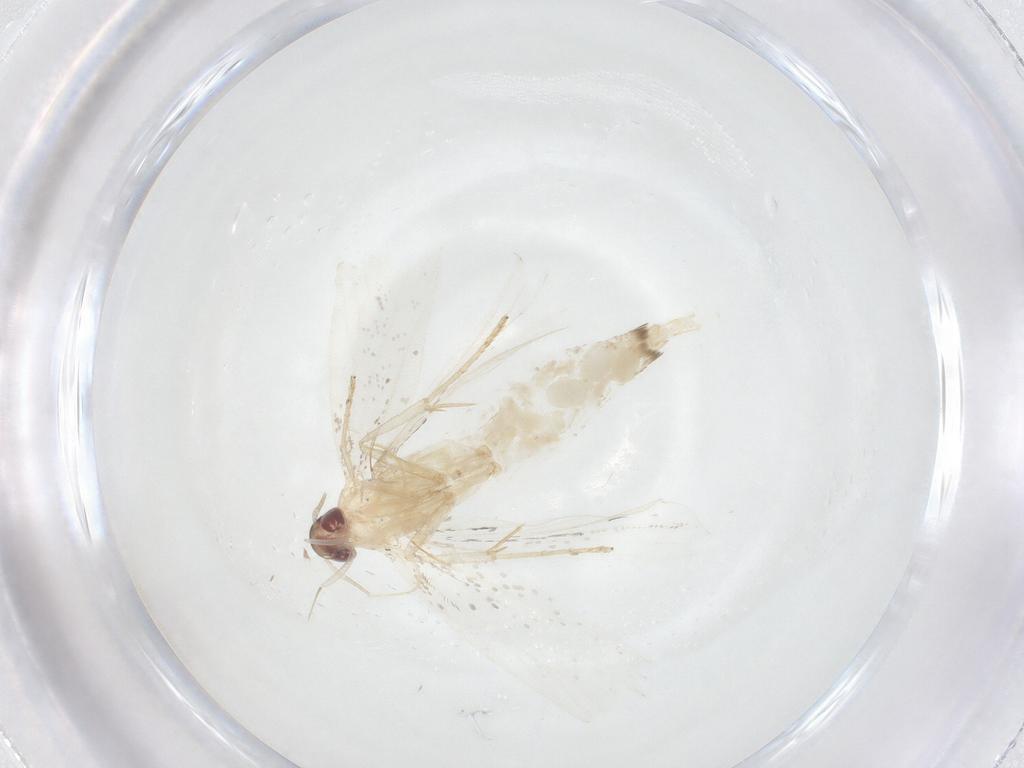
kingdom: Animalia
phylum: Arthropoda
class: Insecta
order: Lepidoptera
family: Gelechiidae
